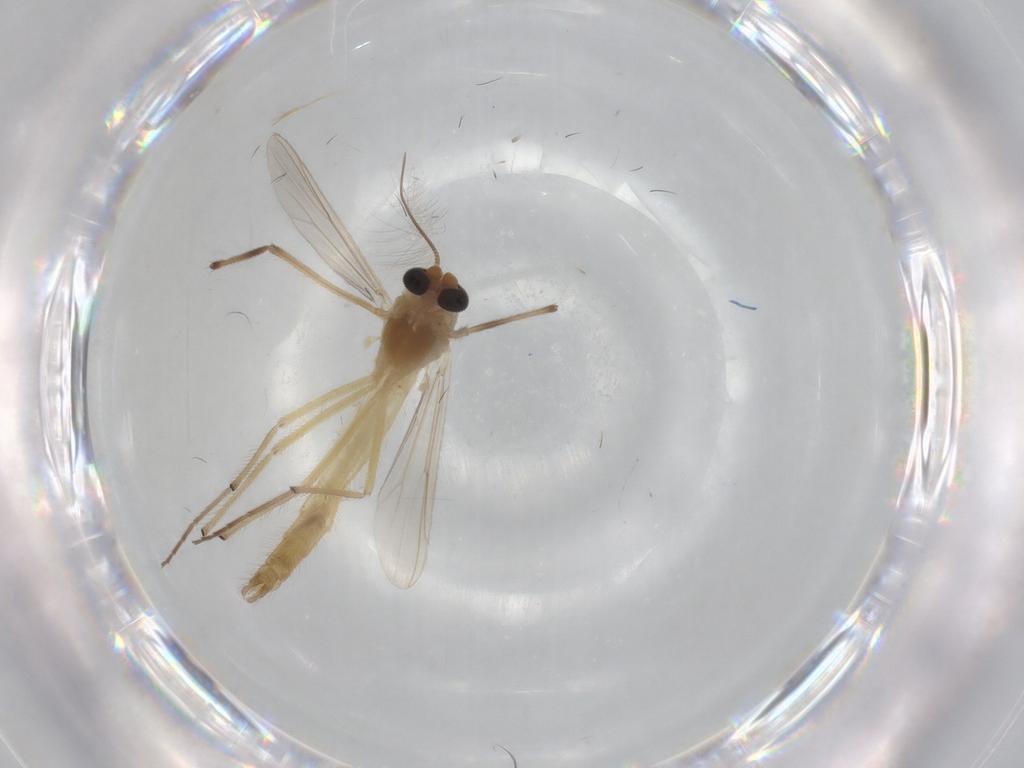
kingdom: Animalia
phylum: Arthropoda
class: Insecta
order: Diptera
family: Chironomidae
